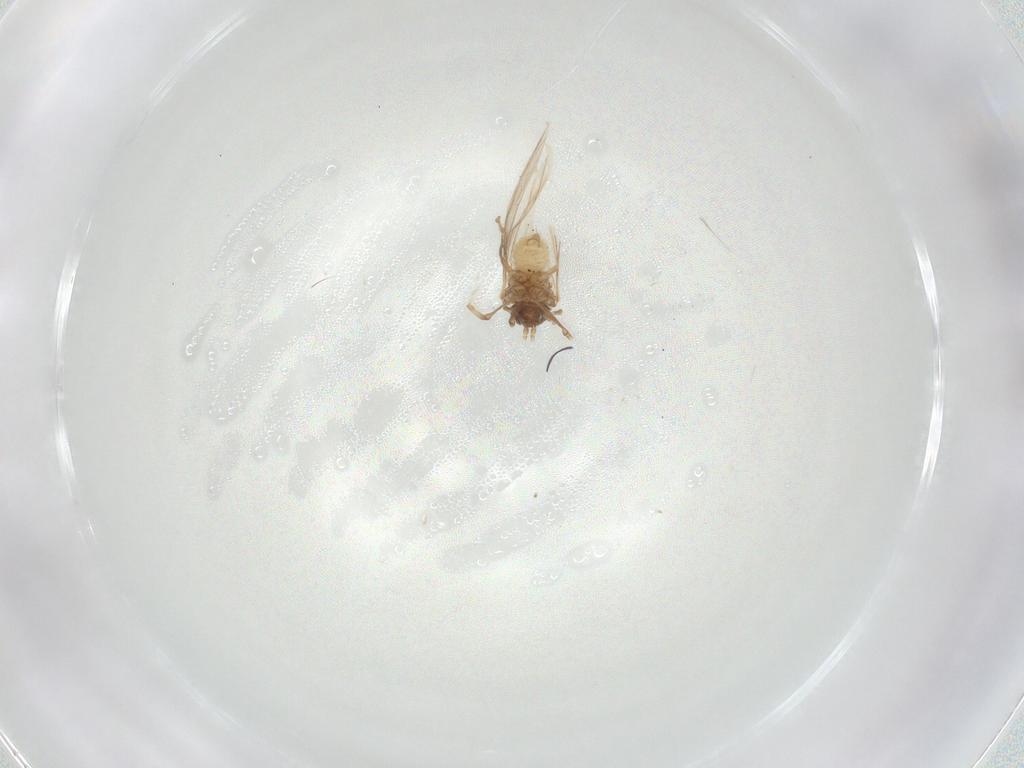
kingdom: Animalia
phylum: Arthropoda
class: Insecta
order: Neuroptera
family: Coniopterygidae
